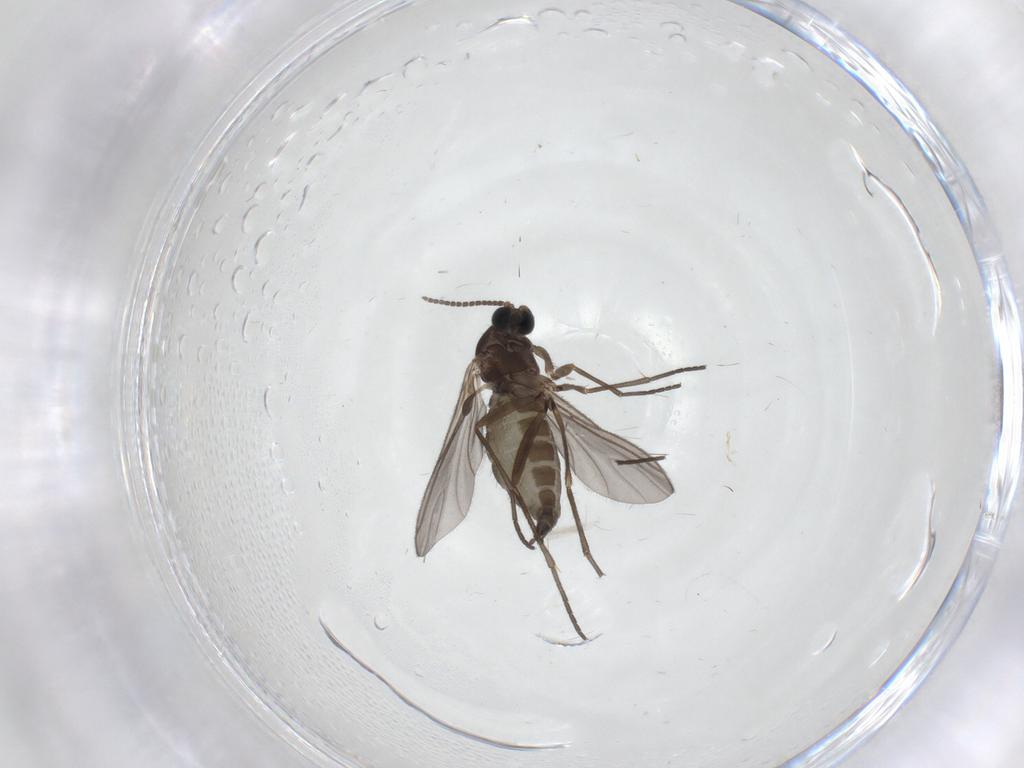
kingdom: Animalia
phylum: Arthropoda
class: Insecta
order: Diptera
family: Sciaridae
